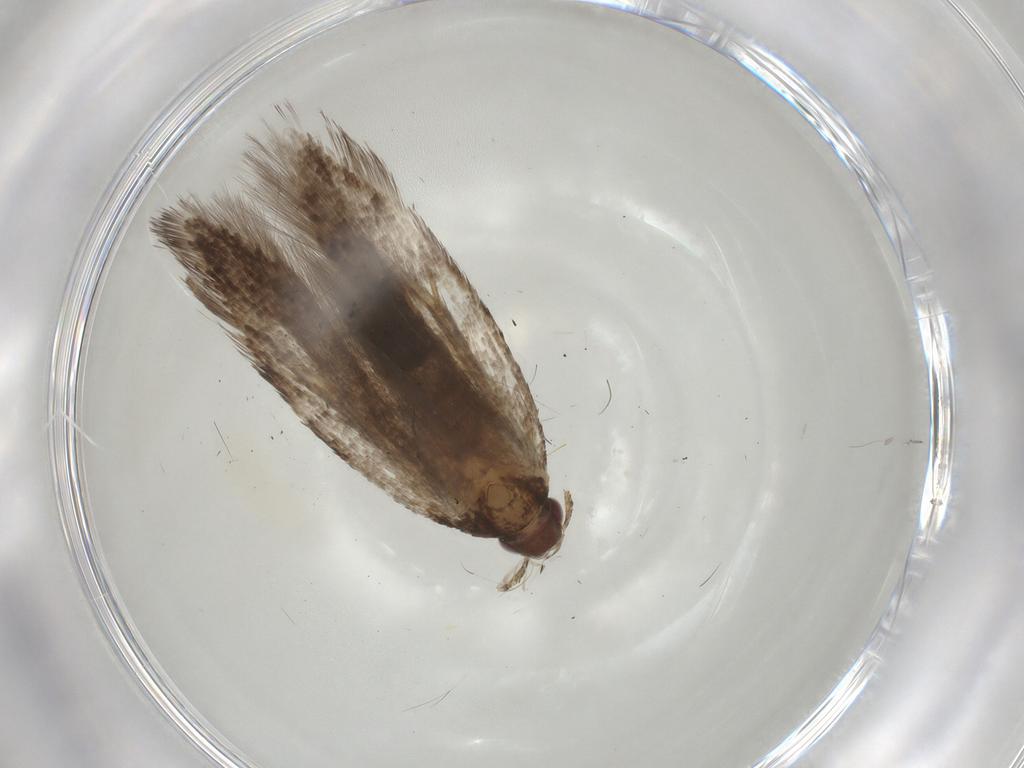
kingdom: Animalia
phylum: Arthropoda
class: Insecta
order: Lepidoptera
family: Gelechiidae
